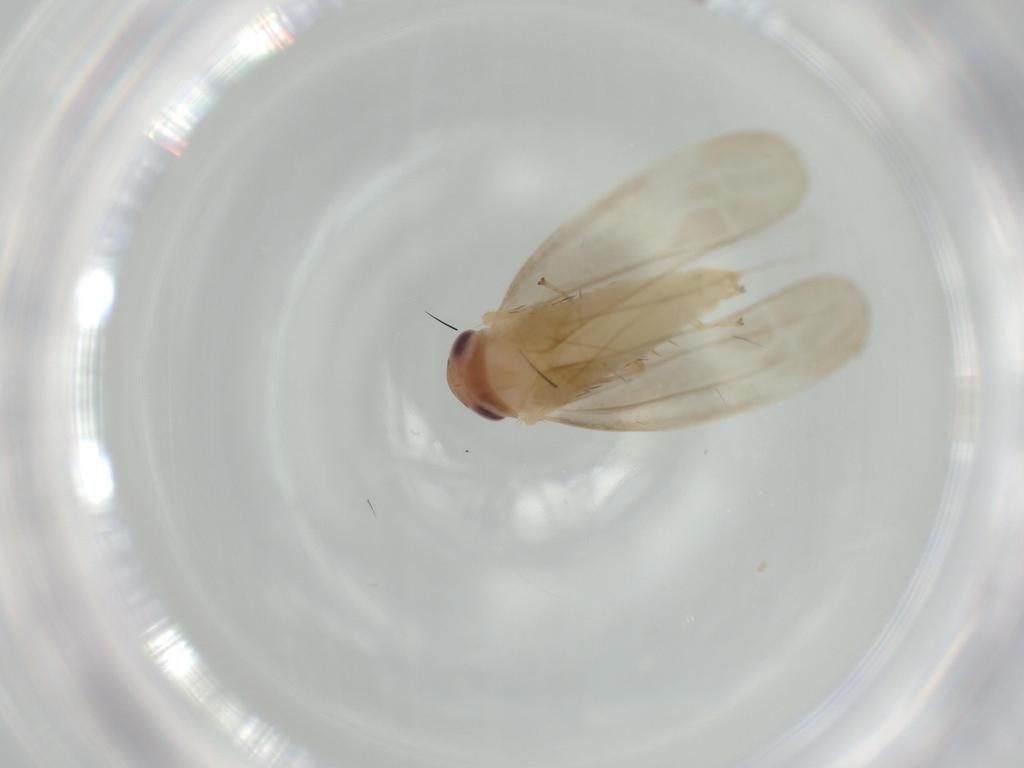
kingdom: Animalia
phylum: Arthropoda
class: Insecta
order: Hemiptera
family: Cicadellidae
